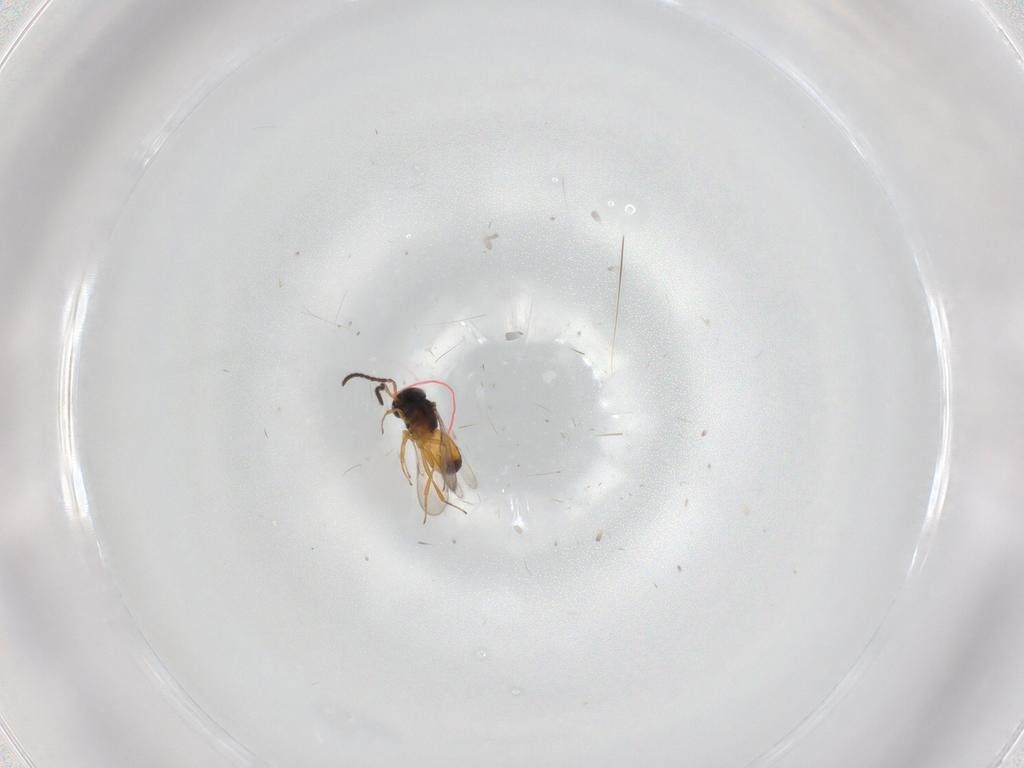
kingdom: Animalia
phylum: Arthropoda
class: Insecta
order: Hymenoptera
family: Scelionidae
